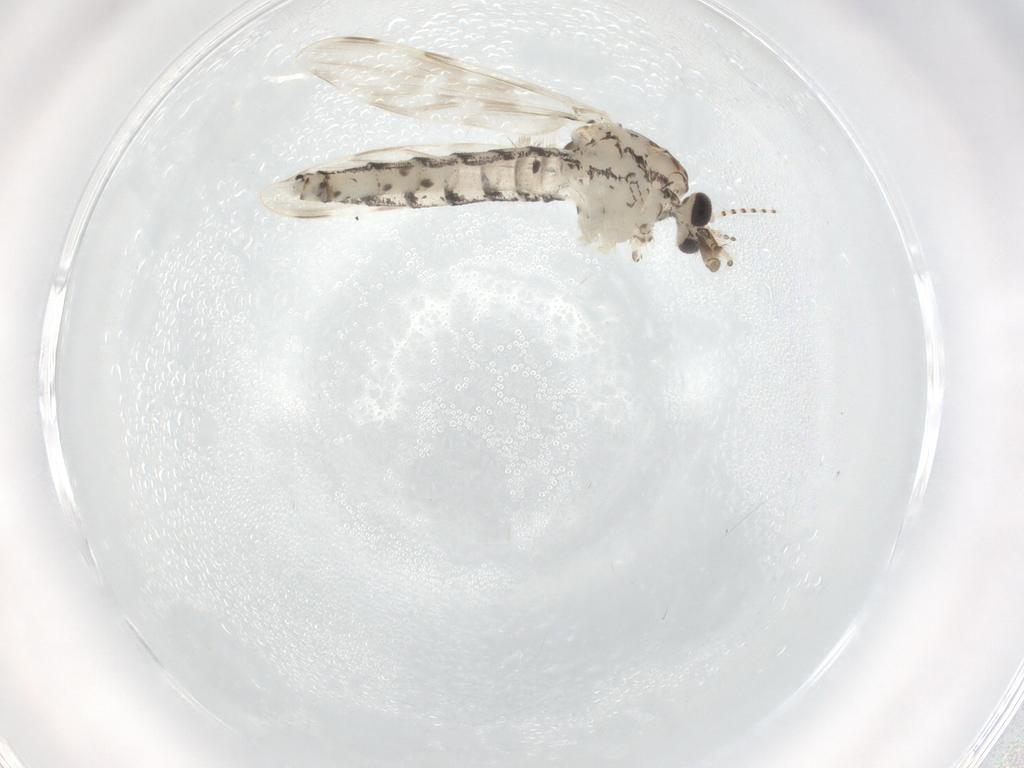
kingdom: Animalia
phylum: Arthropoda
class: Insecta
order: Diptera
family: Cecidomyiidae
